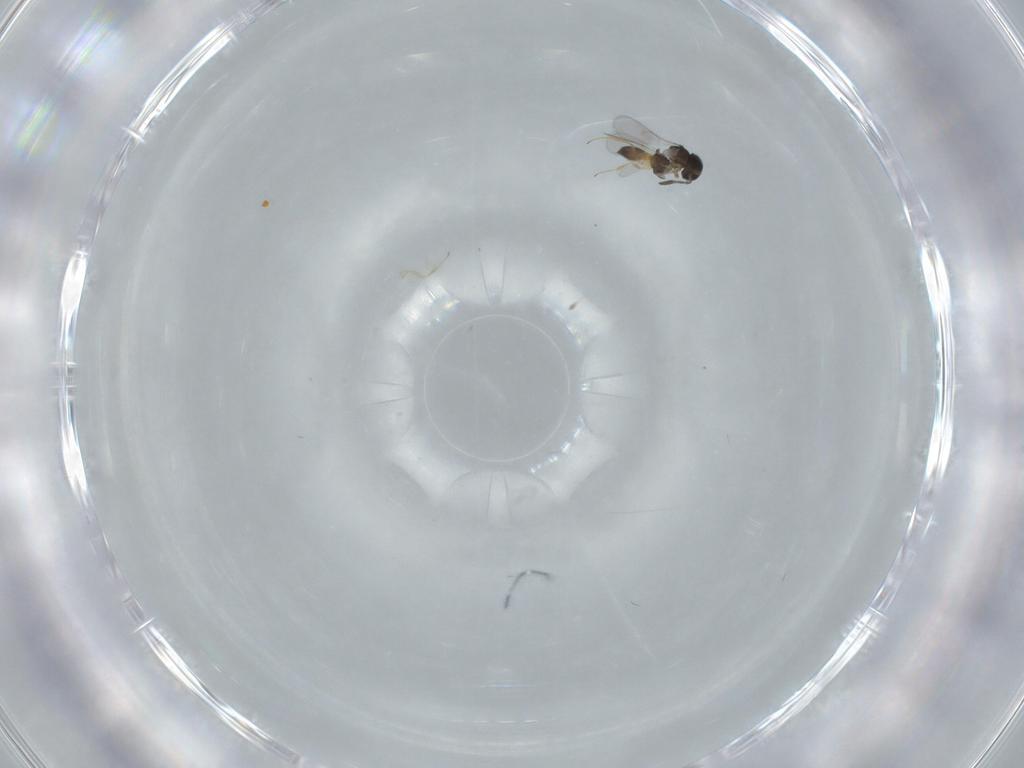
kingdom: Animalia
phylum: Arthropoda
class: Insecta
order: Hymenoptera
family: Scelionidae
